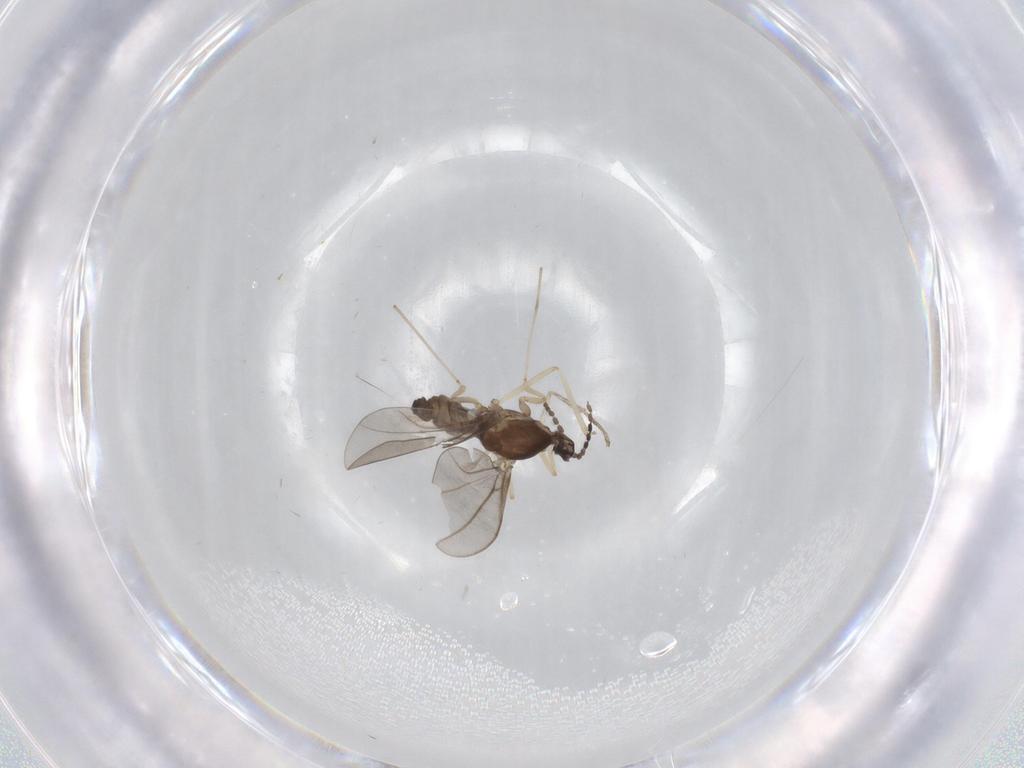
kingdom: Animalia
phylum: Arthropoda
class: Insecta
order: Diptera
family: Cecidomyiidae
